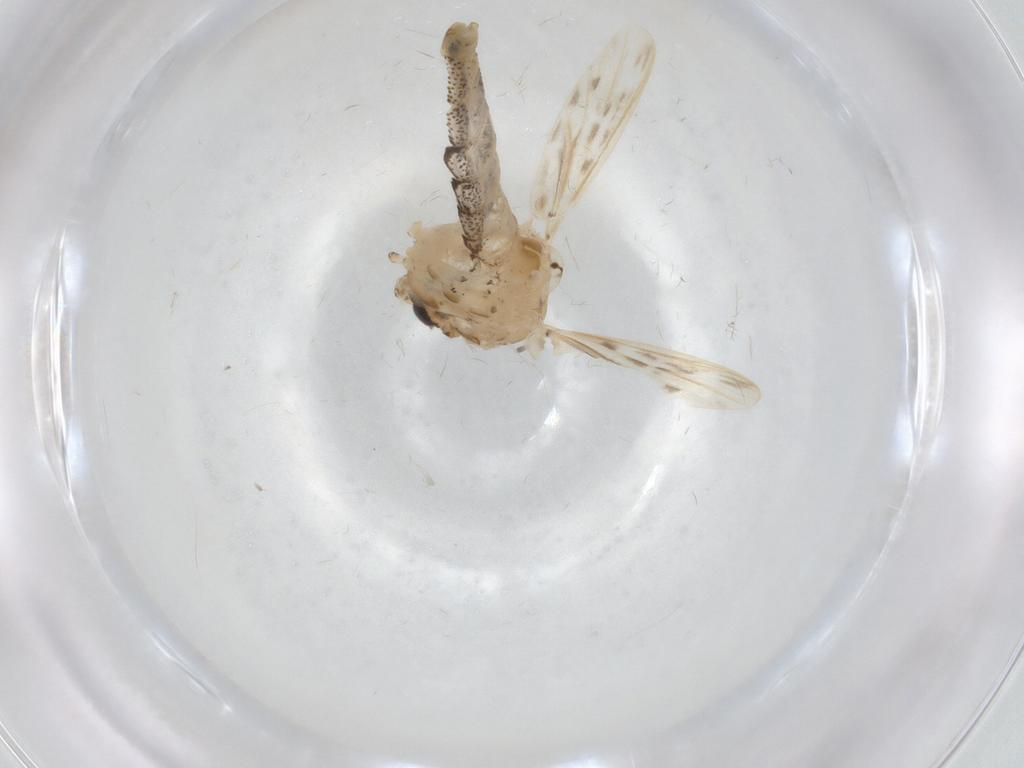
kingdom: Animalia
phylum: Arthropoda
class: Insecta
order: Diptera
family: Chaoboridae
